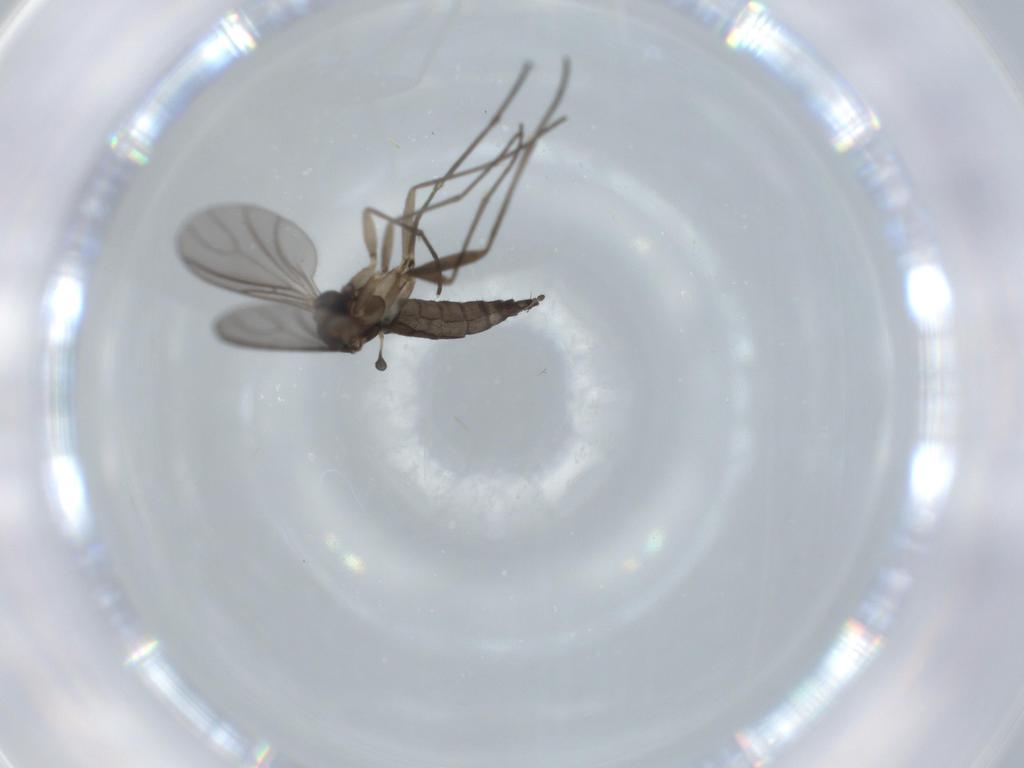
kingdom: Animalia
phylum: Arthropoda
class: Insecta
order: Diptera
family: Sciaridae
